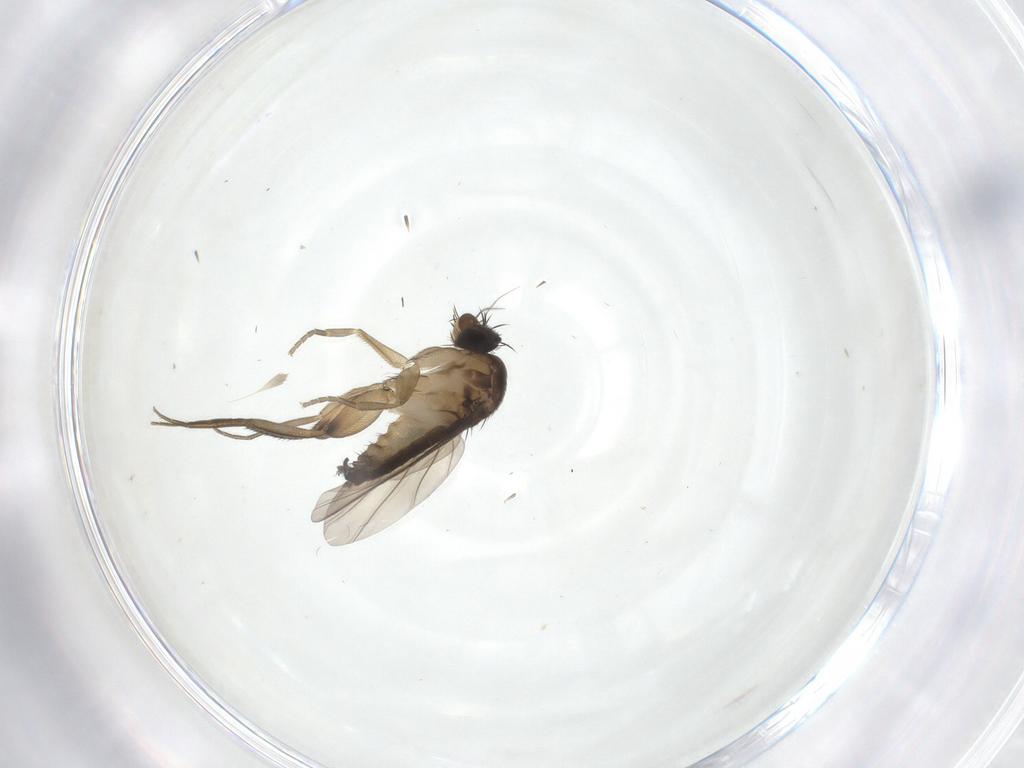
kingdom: Animalia
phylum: Arthropoda
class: Insecta
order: Diptera
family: Phoridae
